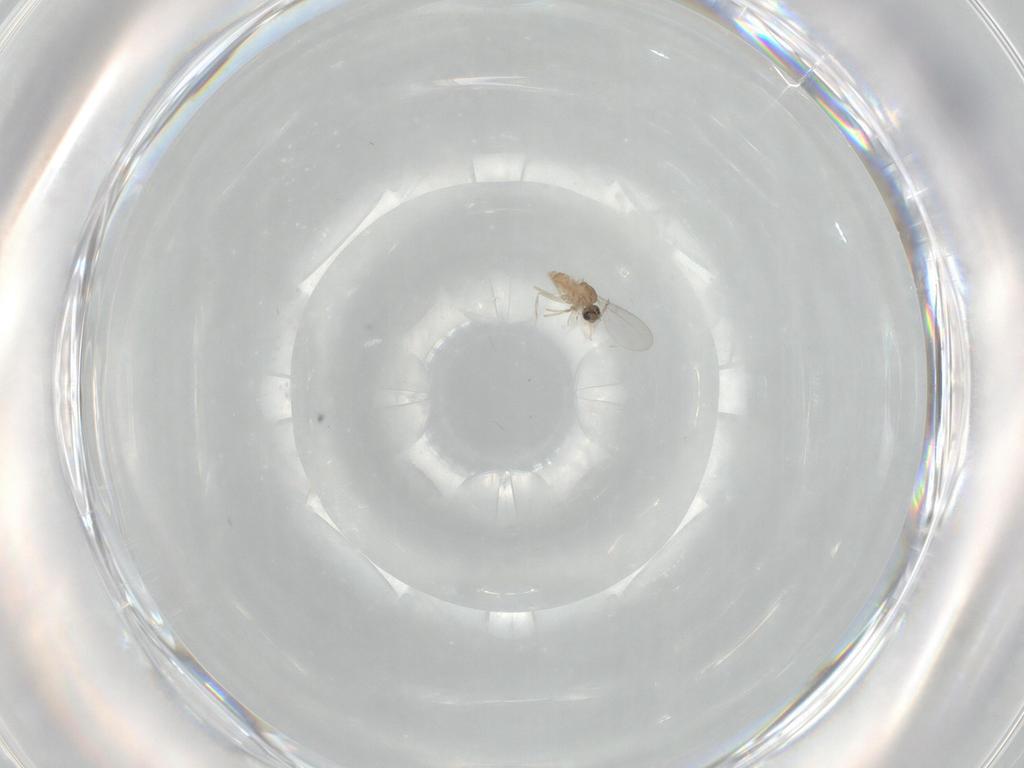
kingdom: Animalia
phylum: Arthropoda
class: Insecta
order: Diptera
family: Cecidomyiidae
